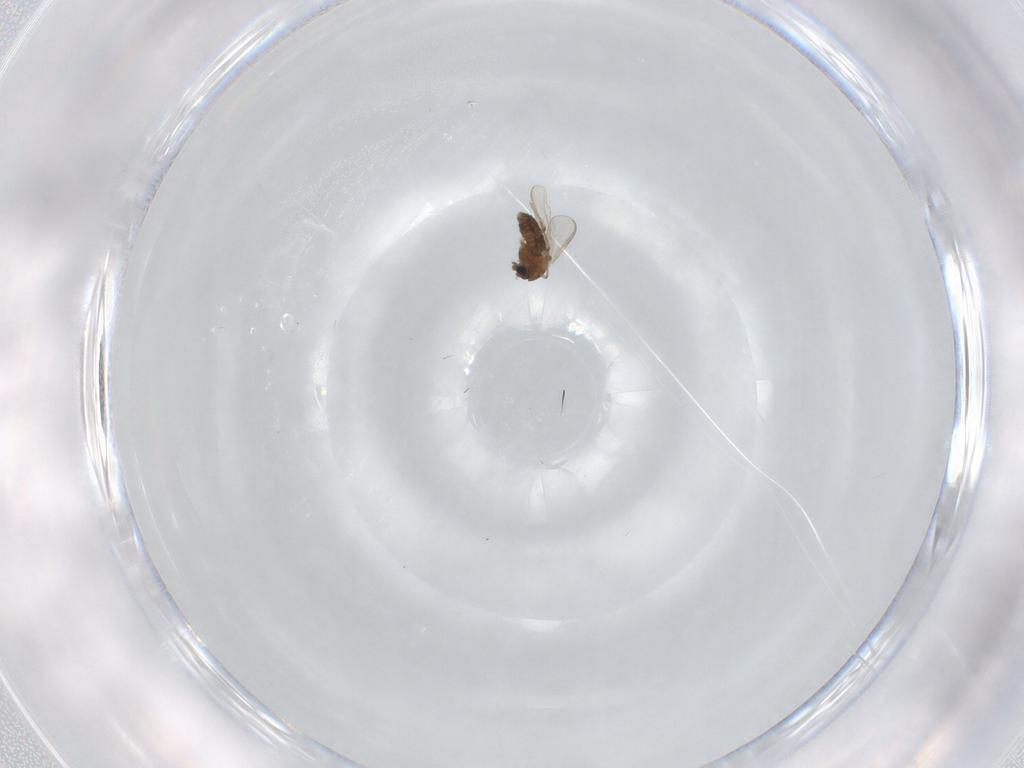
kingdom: Animalia
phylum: Arthropoda
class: Insecta
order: Diptera
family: Chironomidae
